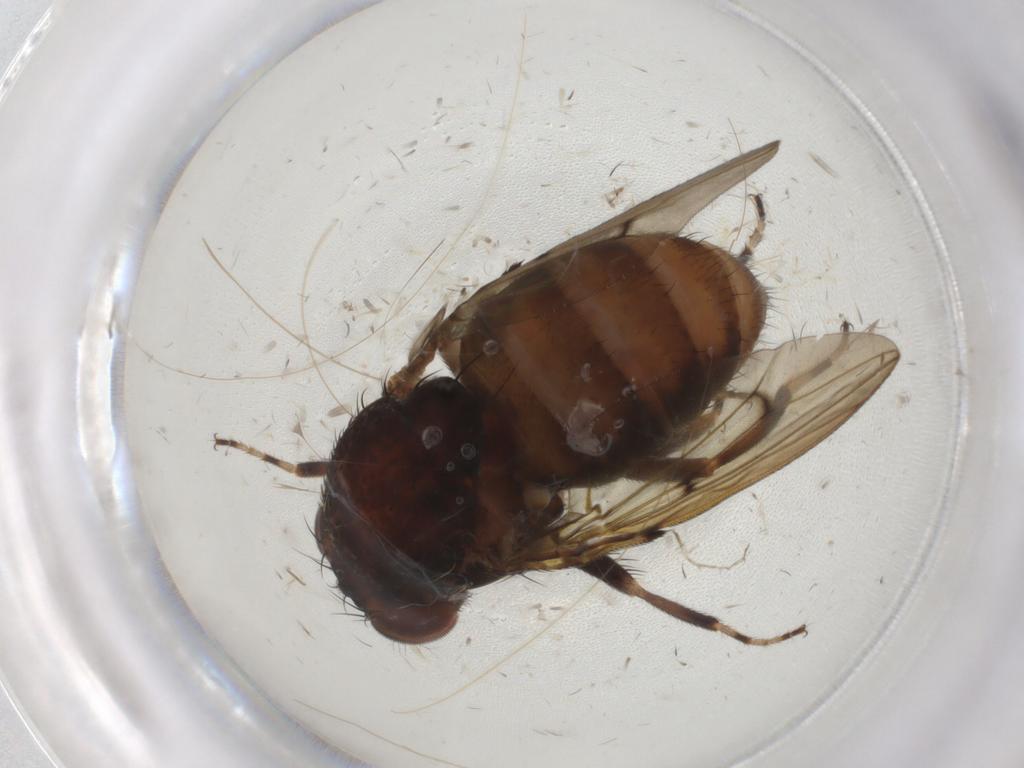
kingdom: Animalia
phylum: Arthropoda
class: Insecta
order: Diptera
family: Drosophilidae
